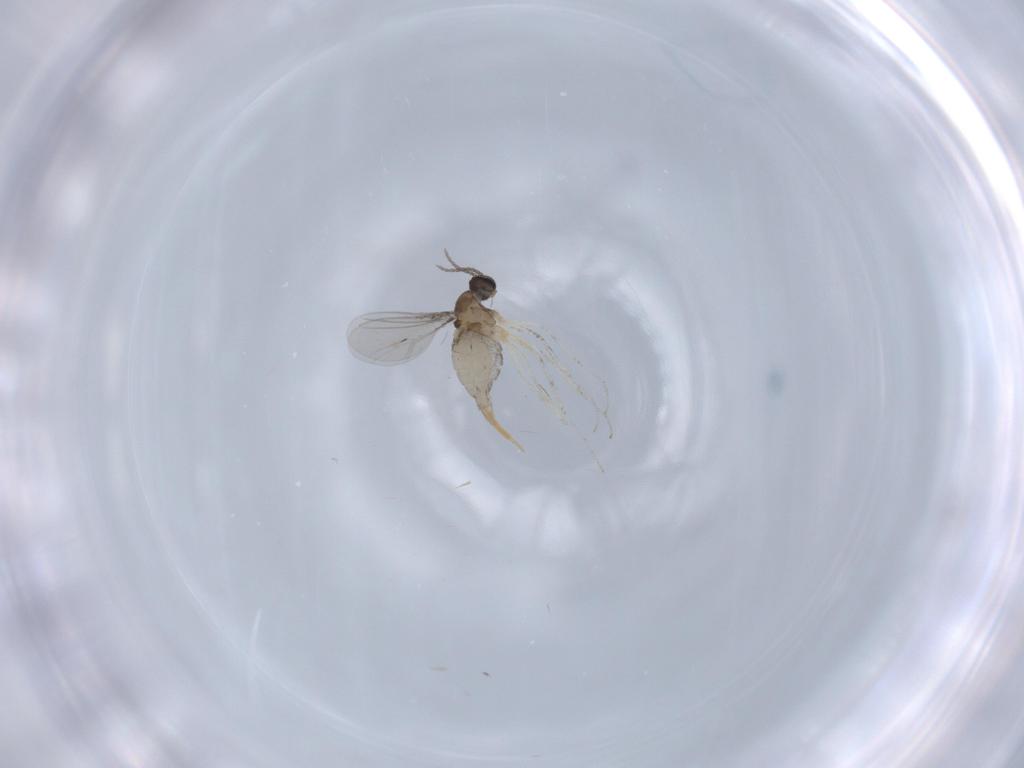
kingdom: Animalia
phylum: Arthropoda
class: Insecta
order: Diptera
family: Cecidomyiidae
